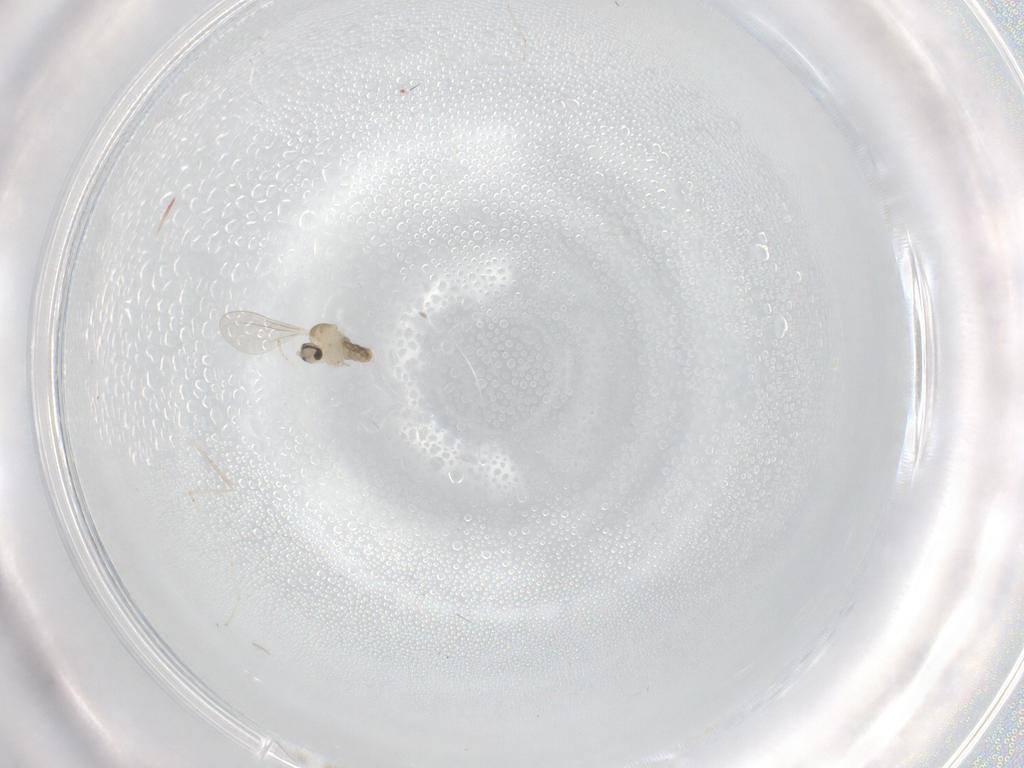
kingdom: Animalia
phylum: Arthropoda
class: Insecta
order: Diptera
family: Cecidomyiidae
